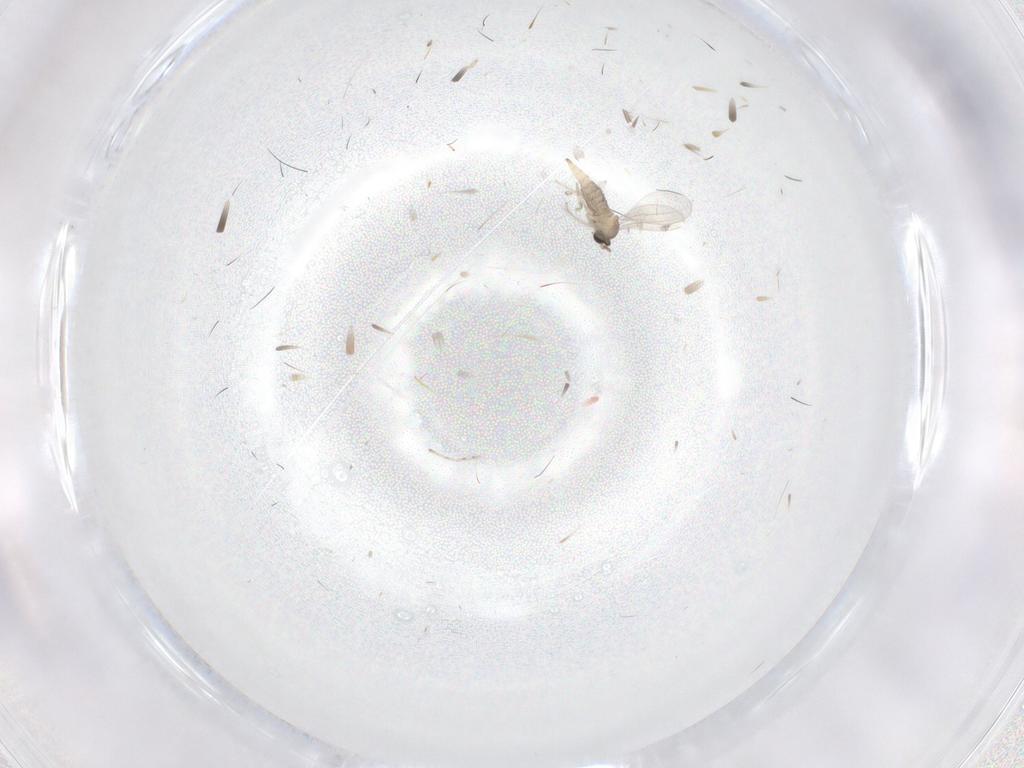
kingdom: Animalia
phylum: Arthropoda
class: Insecta
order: Diptera
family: Cecidomyiidae
